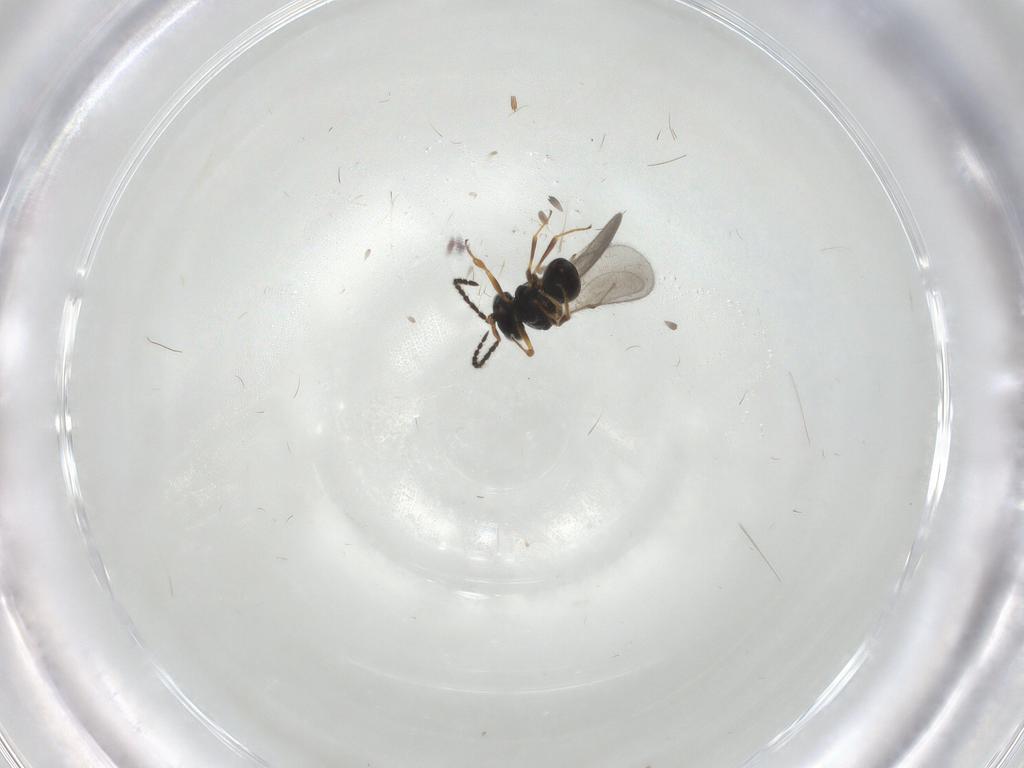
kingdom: Animalia
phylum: Arthropoda
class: Insecta
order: Hymenoptera
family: Scelionidae
